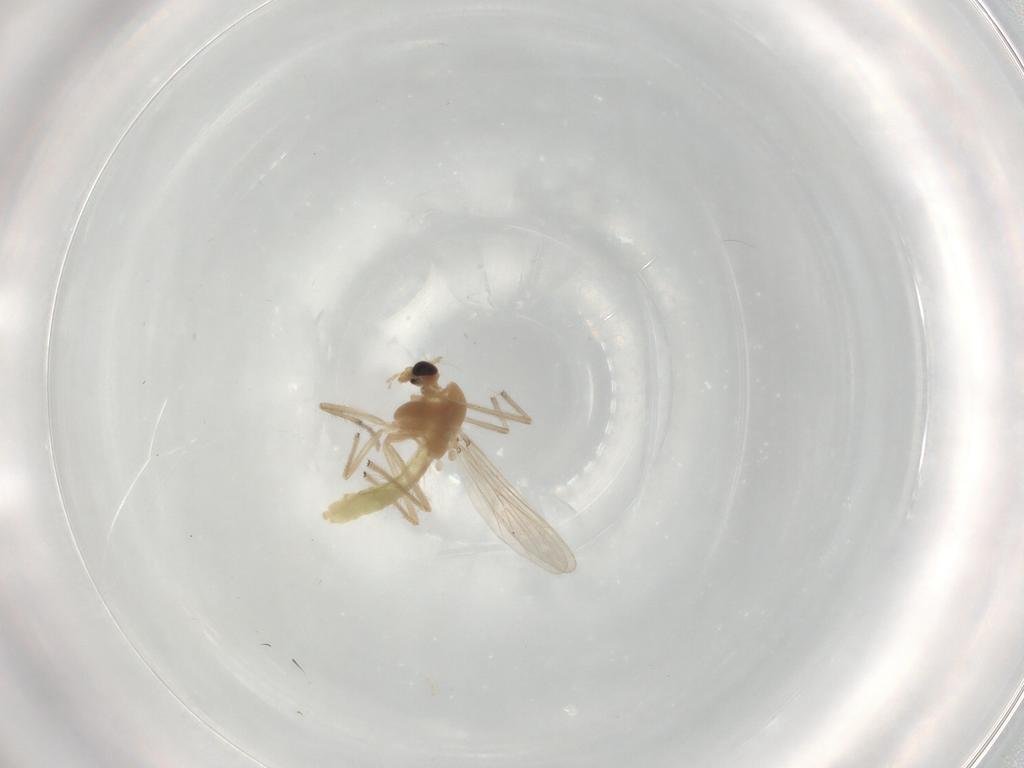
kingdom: Animalia
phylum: Arthropoda
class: Insecta
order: Diptera
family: Chironomidae
